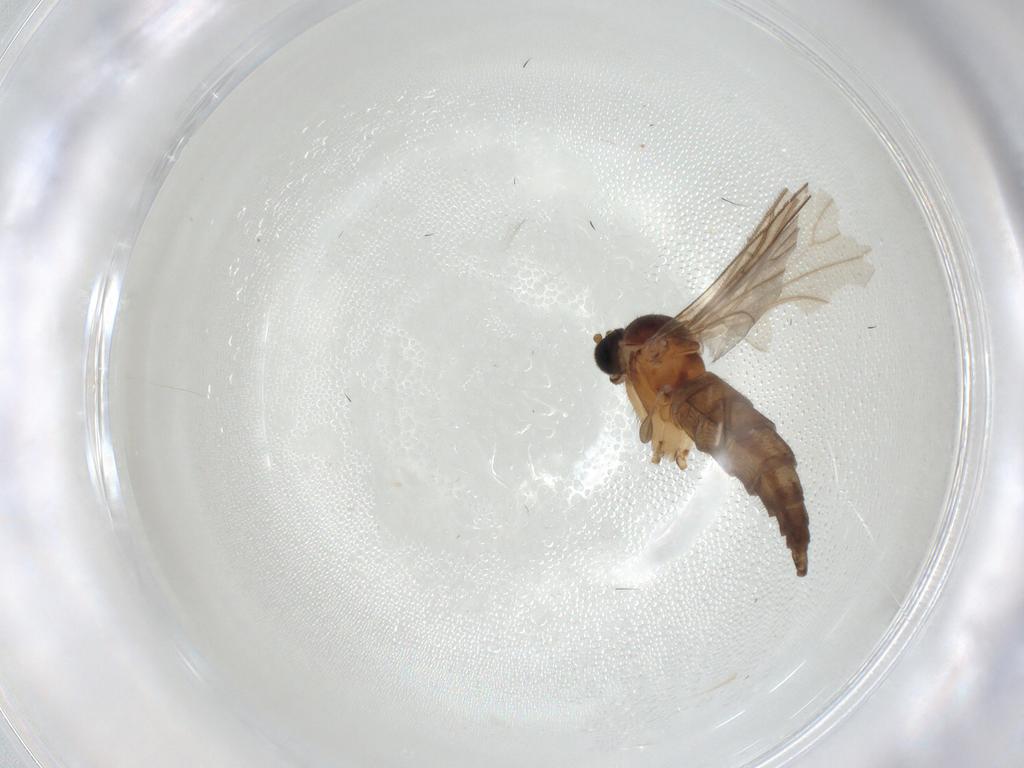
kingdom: Animalia
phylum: Arthropoda
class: Insecta
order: Diptera
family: Sciaridae
